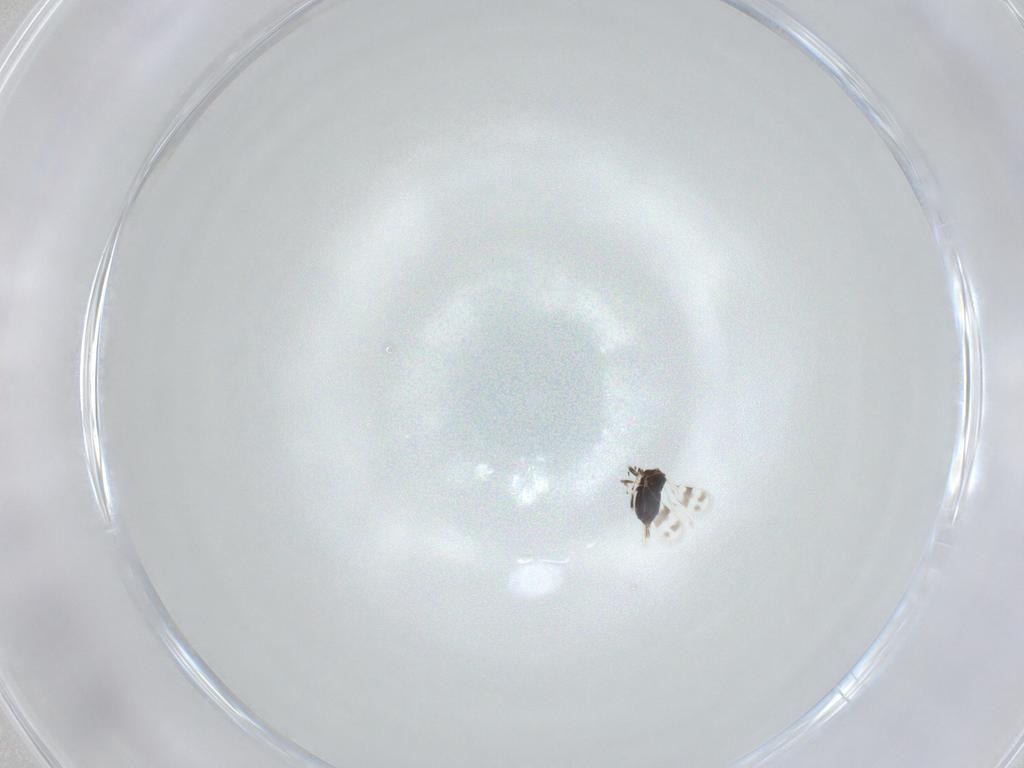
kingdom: Animalia
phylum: Arthropoda
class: Insecta
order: Hymenoptera
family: Azotidae
